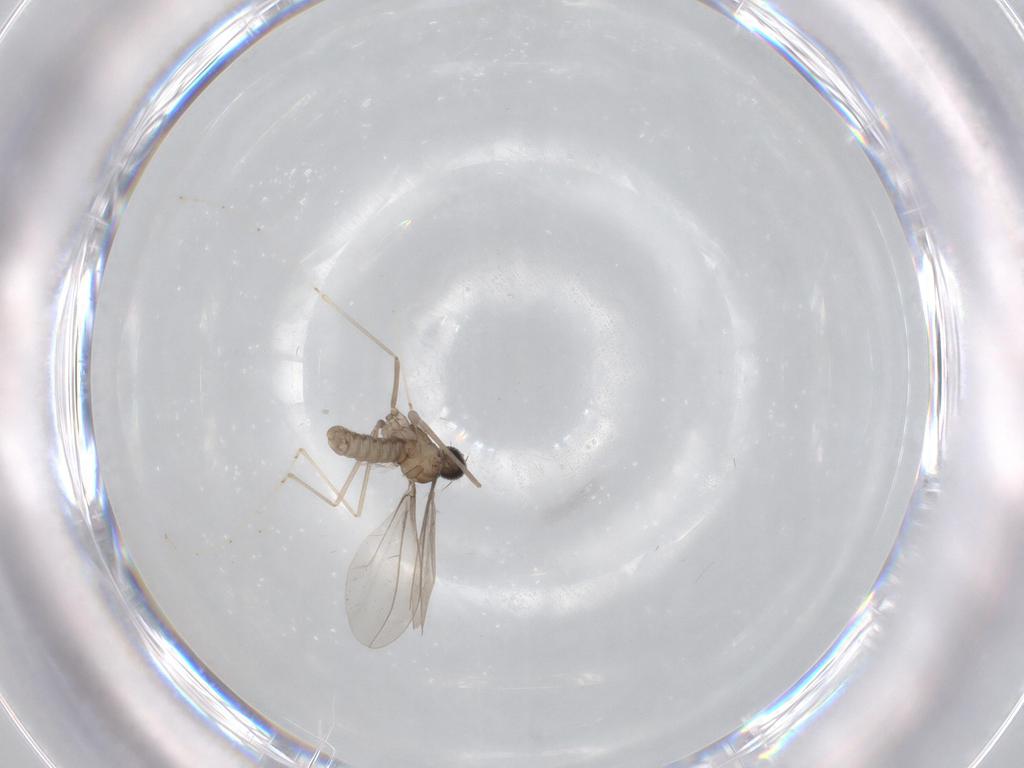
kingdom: Animalia
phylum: Arthropoda
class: Insecta
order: Diptera
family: Cecidomyiidae
